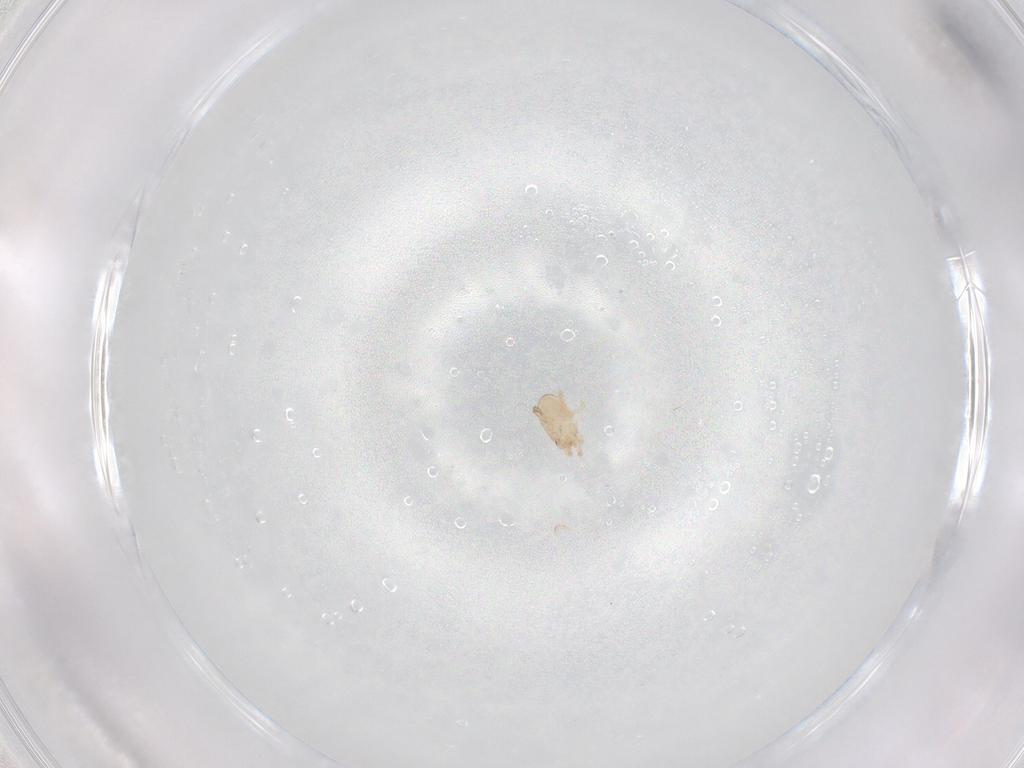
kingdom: Animalia
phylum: Arthropoda
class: Arachnida
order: Mesostigmata
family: Melicharidae
